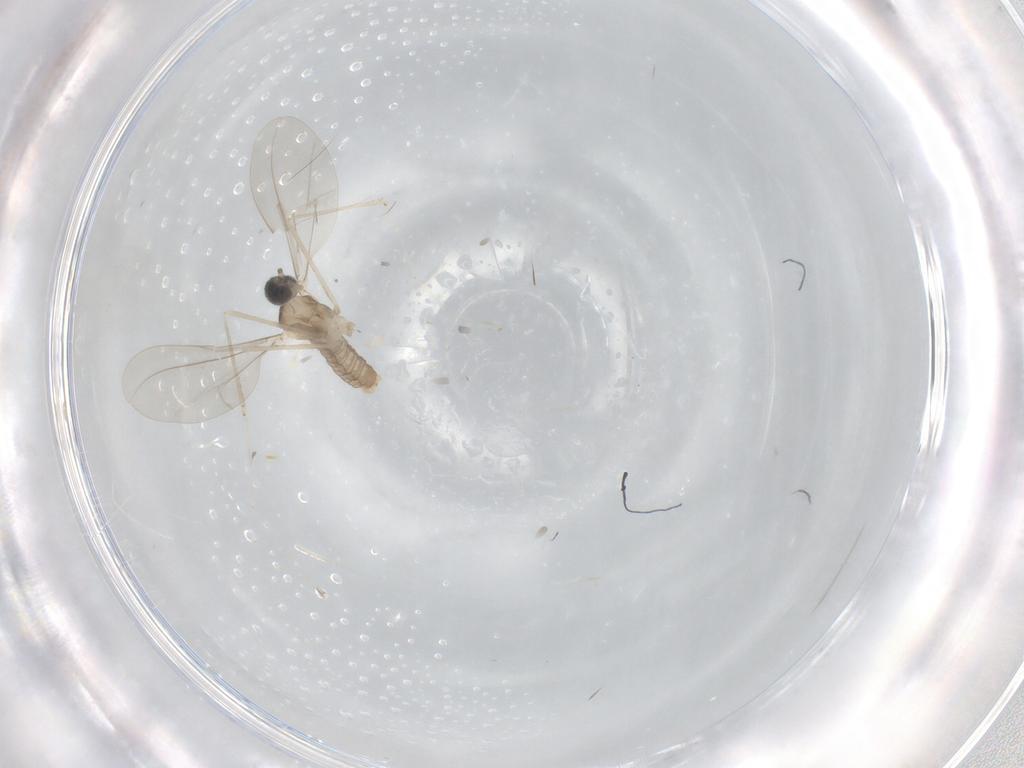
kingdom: Animalia
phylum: Arthropoda
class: Insecta
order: Diptera
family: Cecidomyiidae
